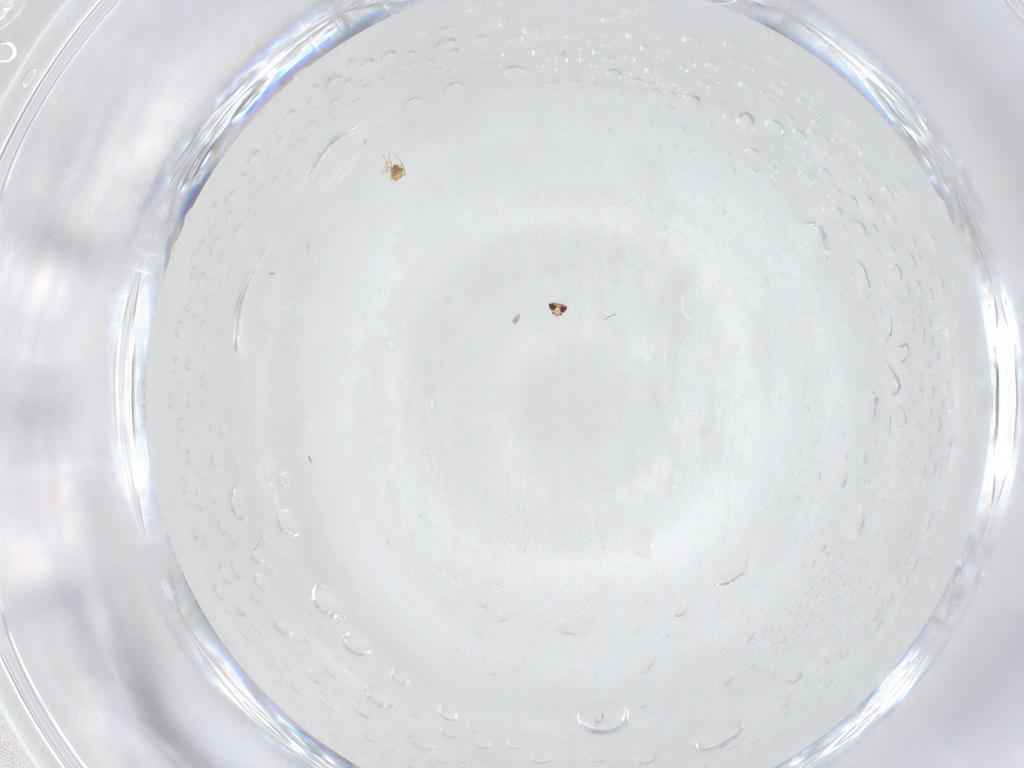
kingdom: Animalia
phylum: Arthropoda
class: Insecta
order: Hymenoptera
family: Mymaridae
